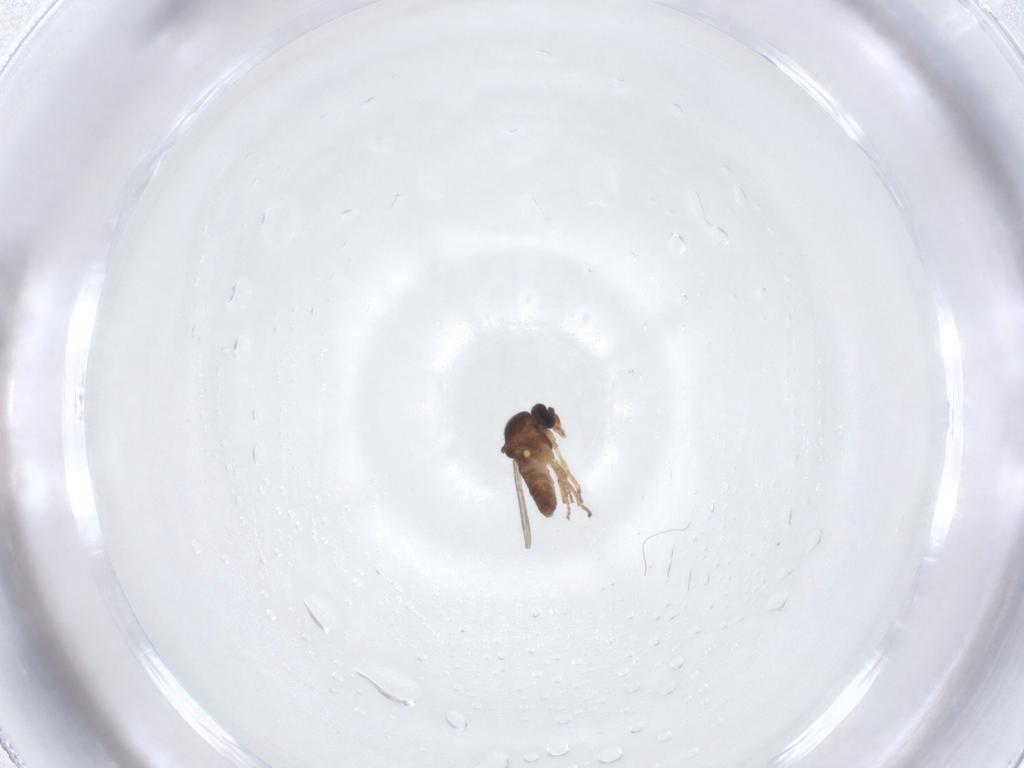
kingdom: Animalia
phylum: Arthropoda
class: Insecta
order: Diptera
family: Ceratopogonidae
